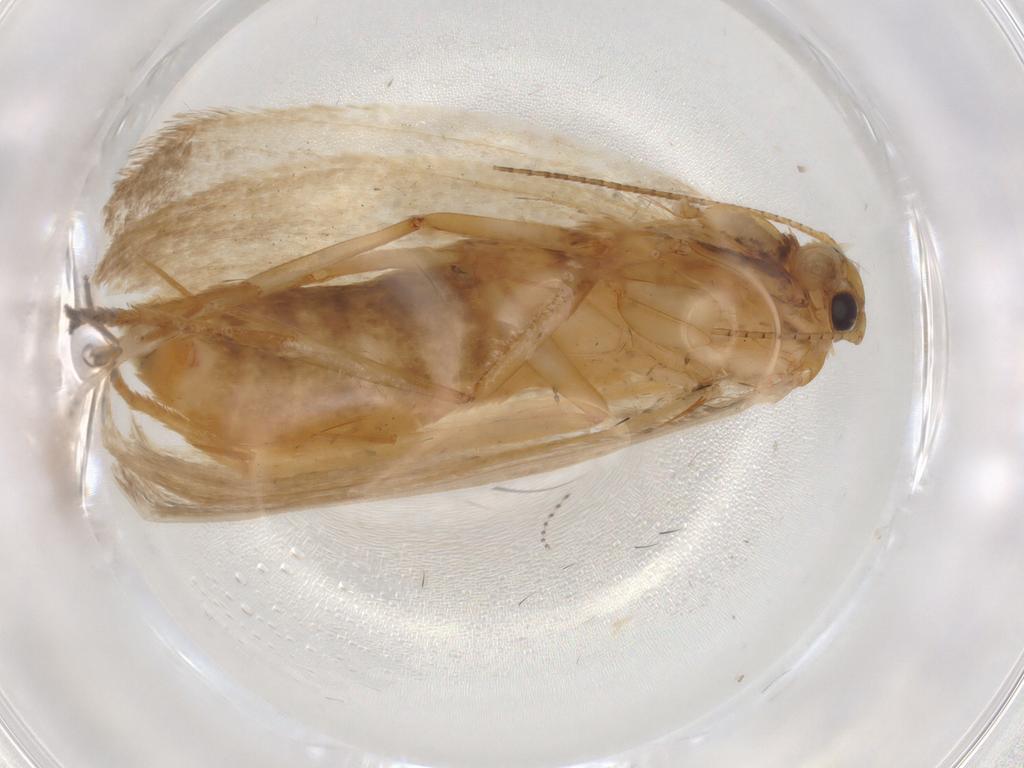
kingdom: Animalia
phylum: Arthropoda
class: Insecta
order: Lepidoptera
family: Erebidae
